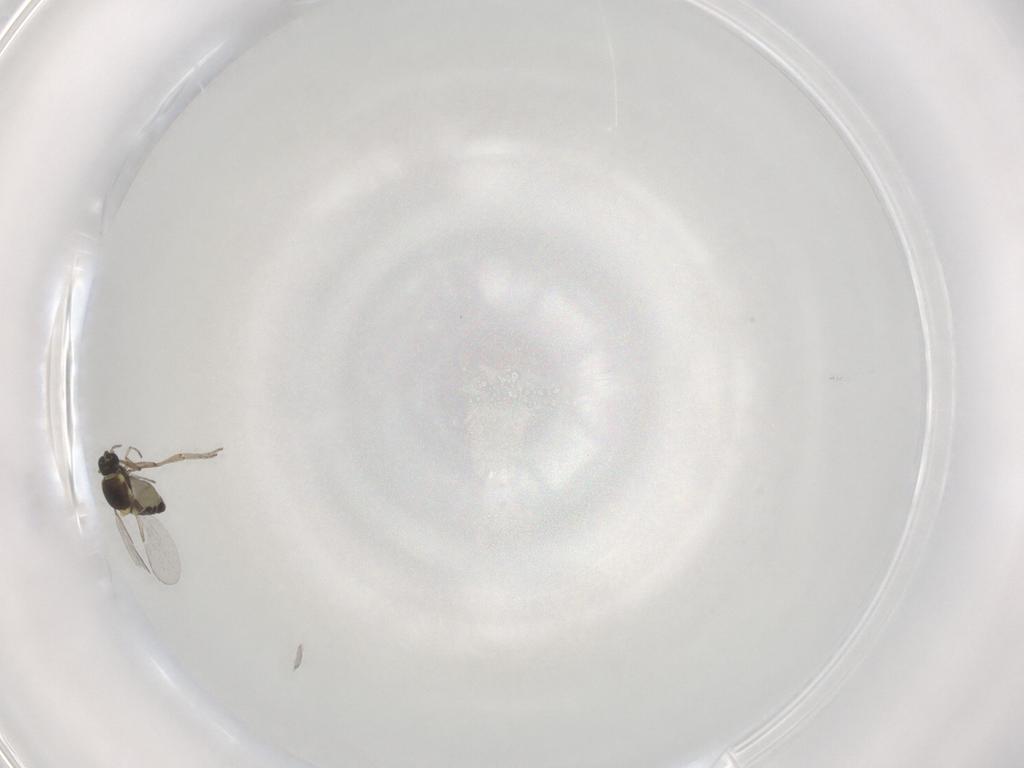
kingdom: Animalia
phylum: Arthropoda
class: Insecta
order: Diptera
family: Ceratopogonidae
